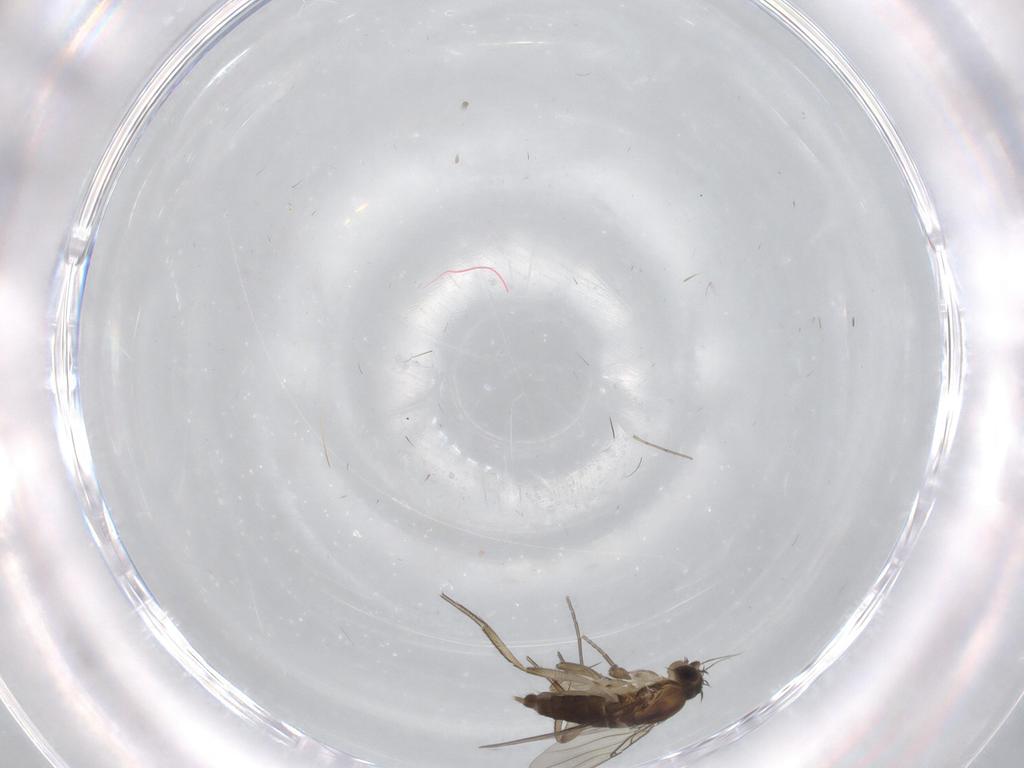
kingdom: Animalia
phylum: Arthropoda
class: Insecta
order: Diptera
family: Phoridae
